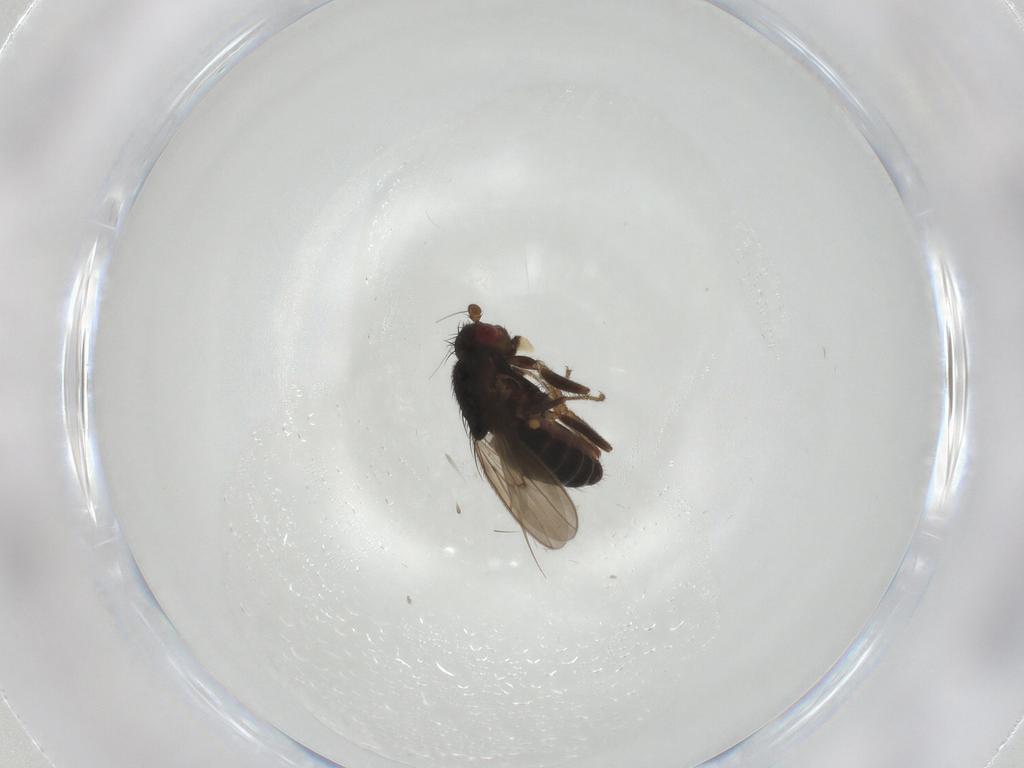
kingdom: Animalia
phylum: Arthropoda
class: Insecta
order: Diptera
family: Sphaeroceridae
